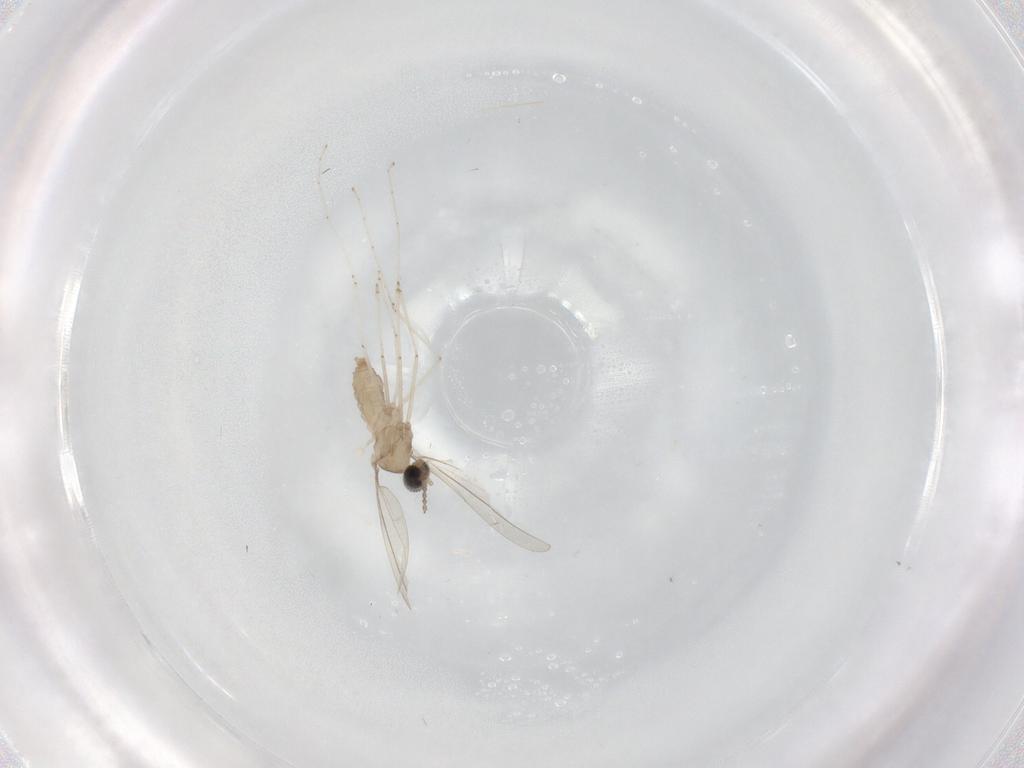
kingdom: Animalia
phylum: Arthropoda
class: Insecta
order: Diptera
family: Cecidomyiidae
